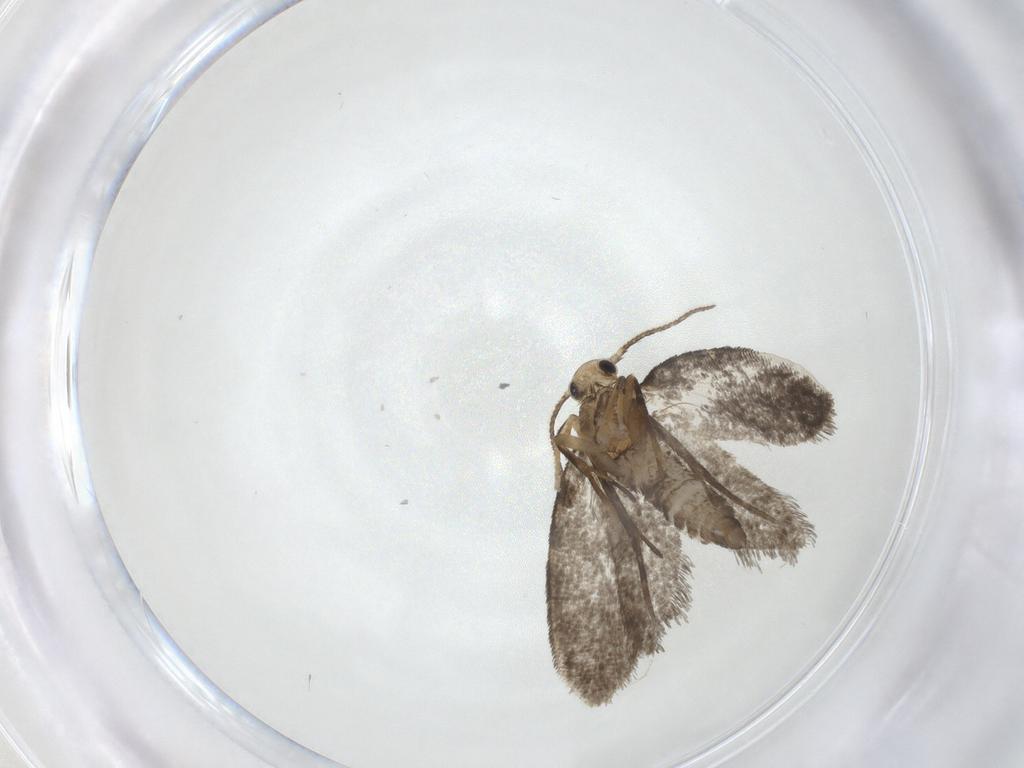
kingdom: Animalia
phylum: Arthropoda
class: Insecta
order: Lepidoptera
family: Psychidae
